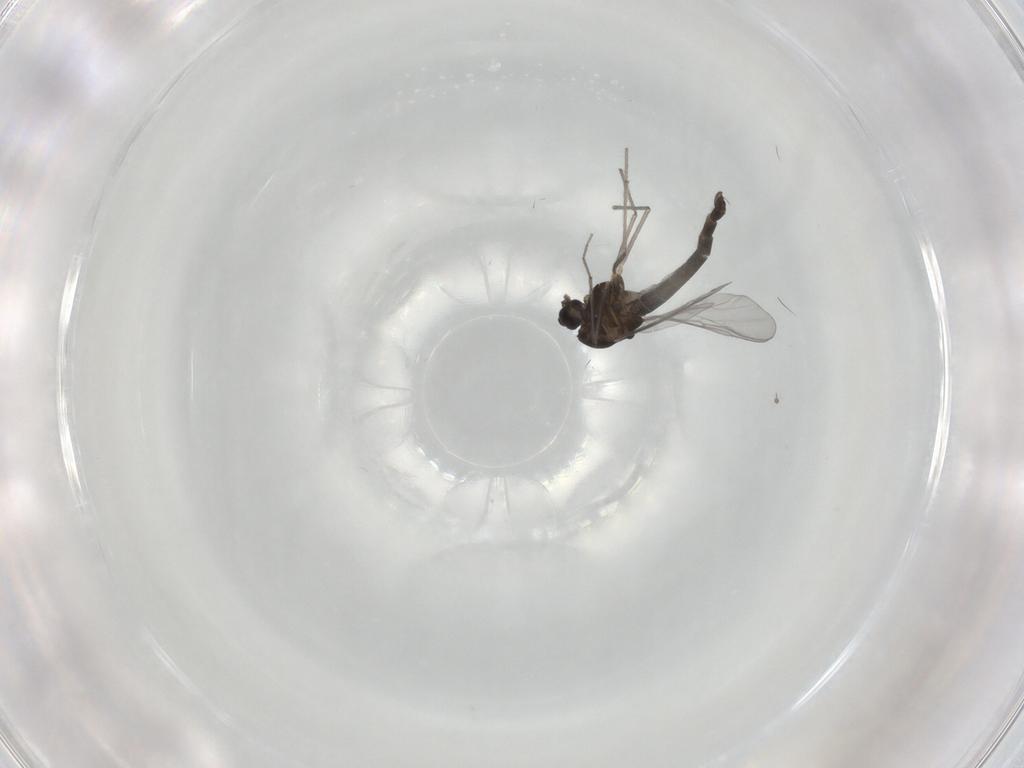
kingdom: Animalia
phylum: Arthropoda
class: Insecta
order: Diptera
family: Chironomidae
